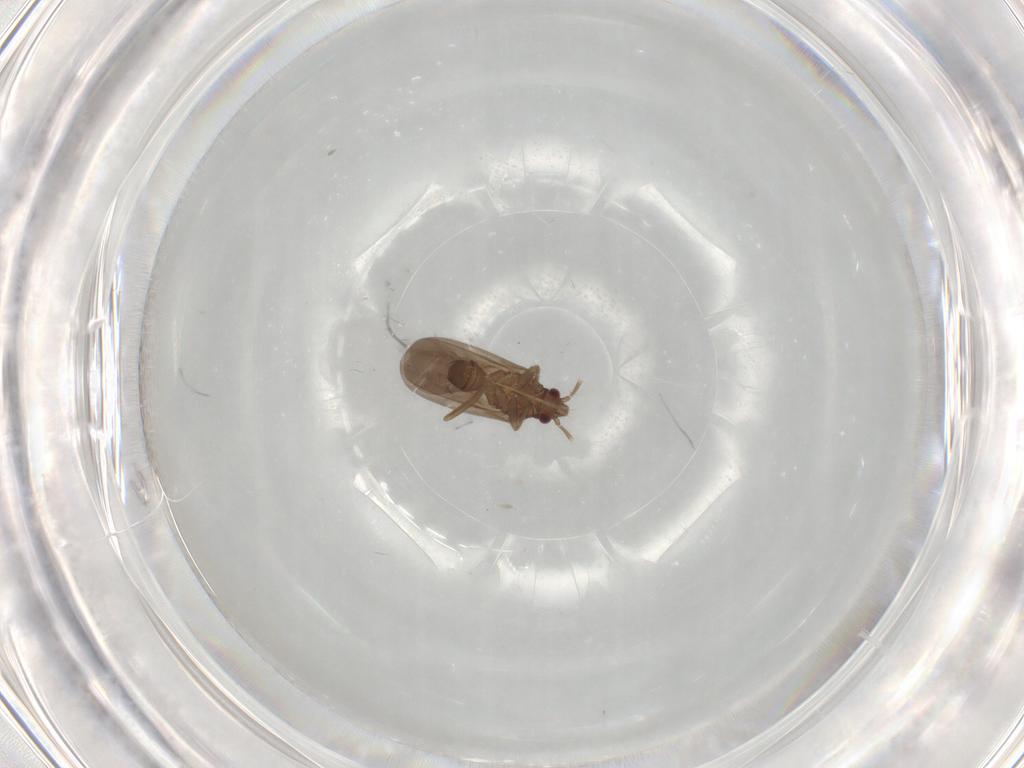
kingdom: Animalia
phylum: Arthropoda
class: Insecta
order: Hemiptera
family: Ceratocombidae
